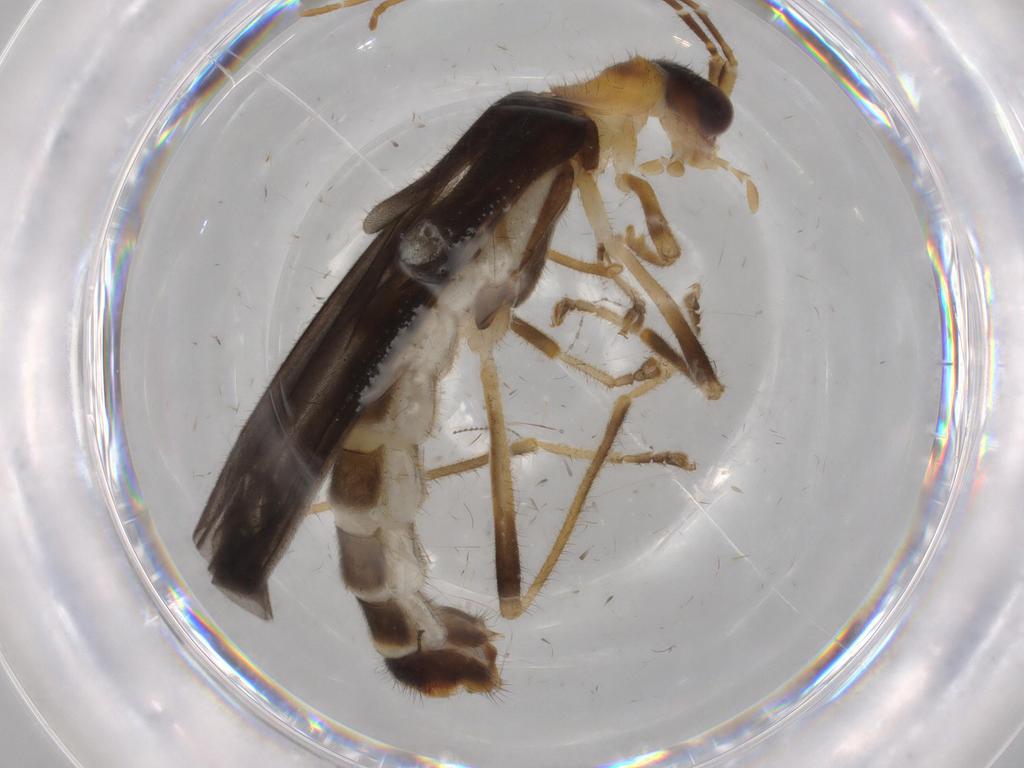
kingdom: Animalia
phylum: Arthropoda
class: Insecta
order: Coleoptera
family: Cantharidae
